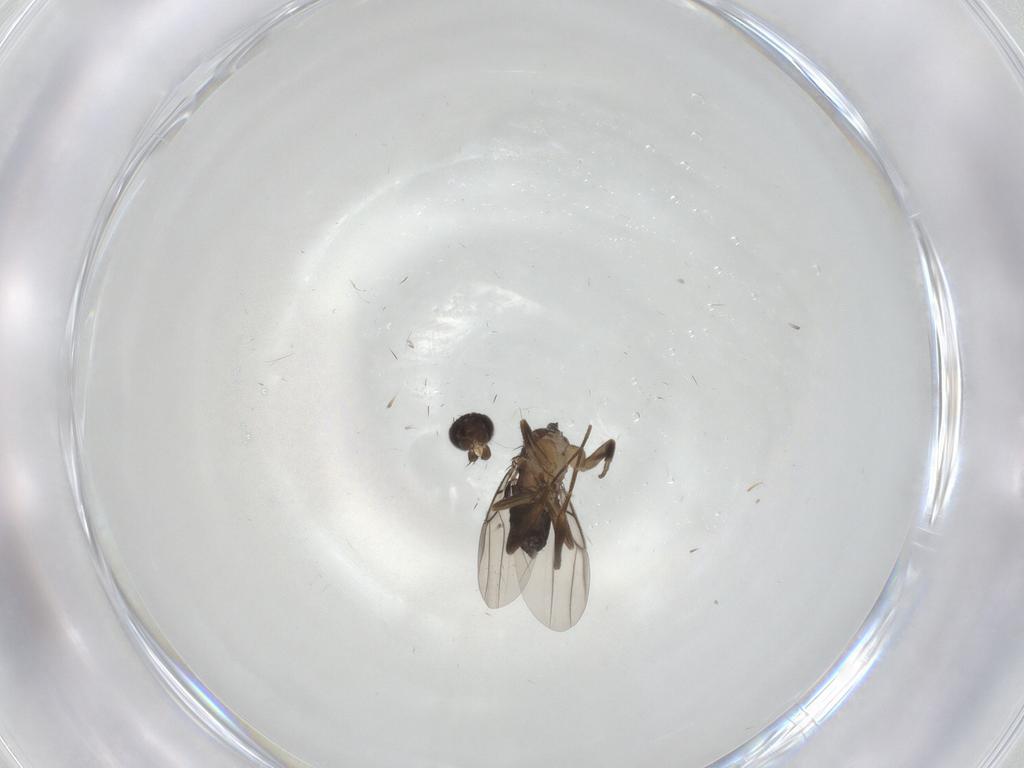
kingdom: Animalia
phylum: Arthropoda
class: Insecta
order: Diptera
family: Phoridae
